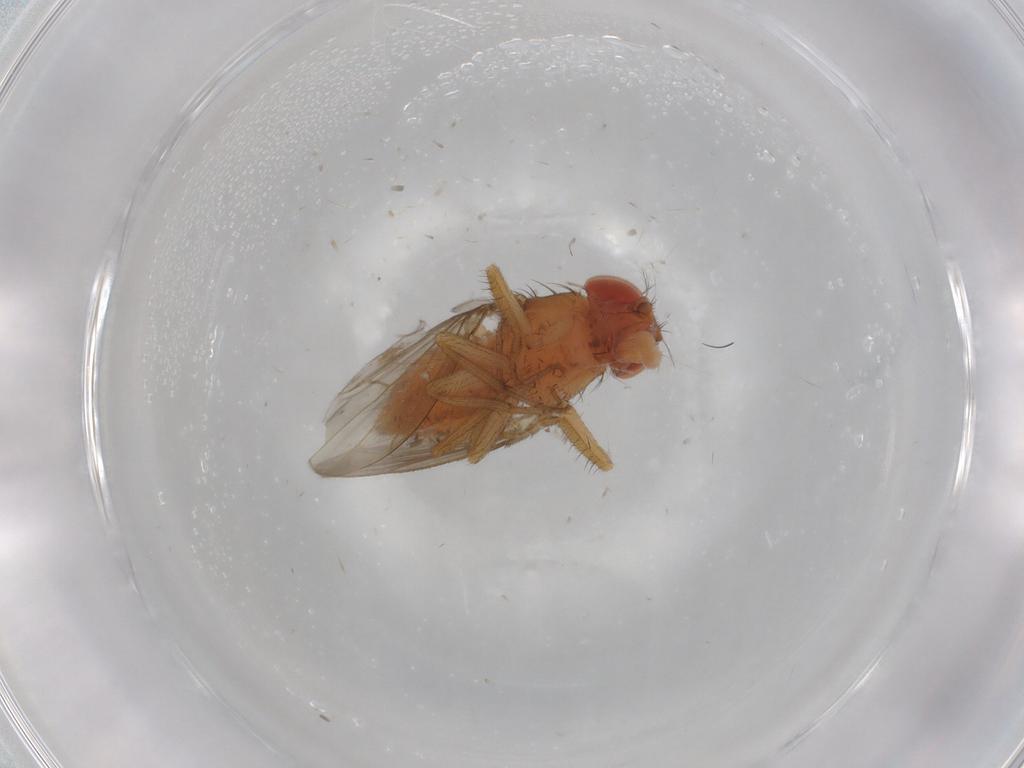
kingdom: Animalia
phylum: Arthropoda
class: Insecta
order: Diptera
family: Drosophilidae
